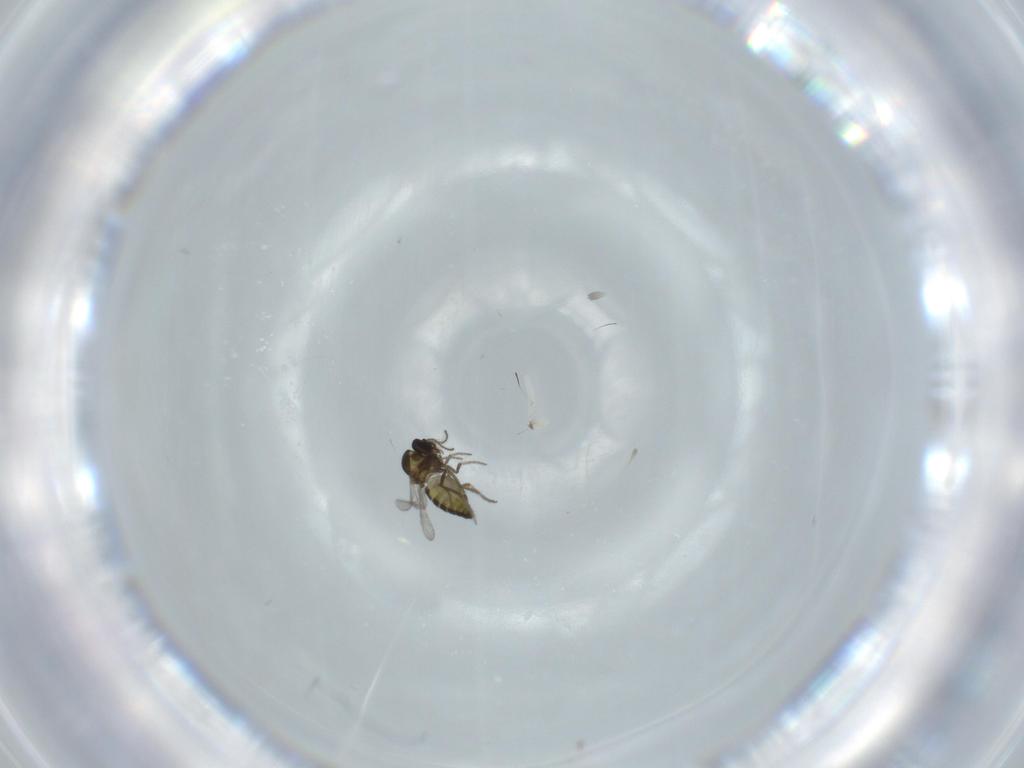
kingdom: Animalia
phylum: Arthropoda
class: Insecta
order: Diptera
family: Ceratopogonidae
